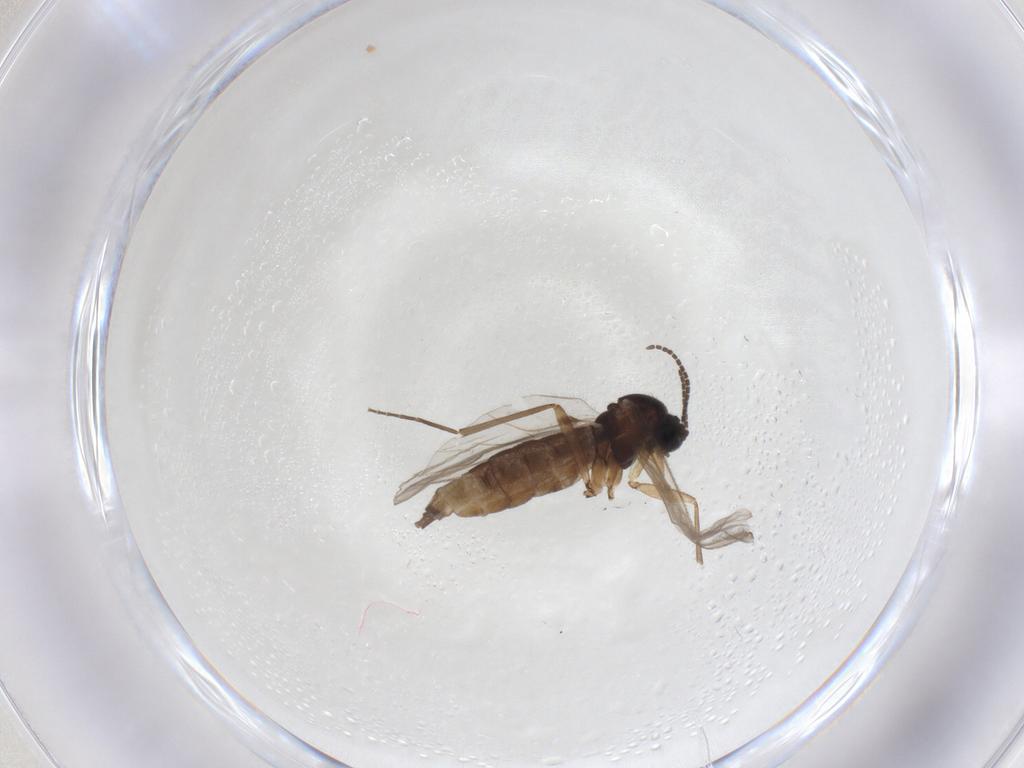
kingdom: Animalia
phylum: Arthropoda
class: Insecta
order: Diptera
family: Sciaridae
